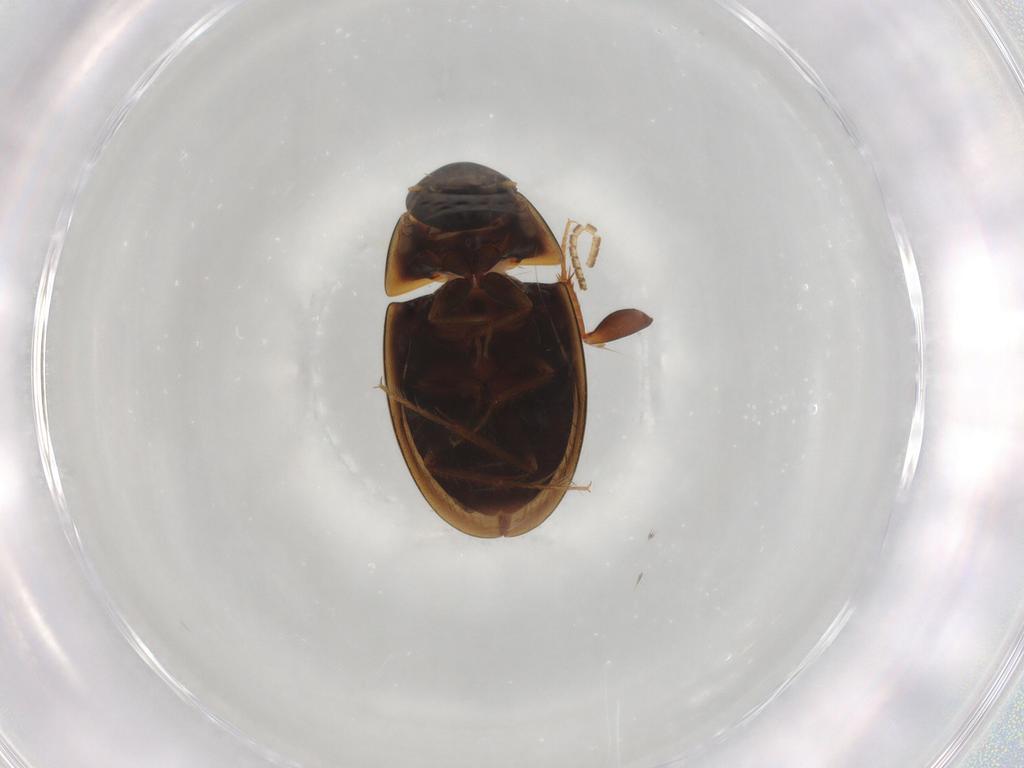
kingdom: Animalia
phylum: Arthropoda
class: Insecta
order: Coleoptera
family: Hydrophilidae
